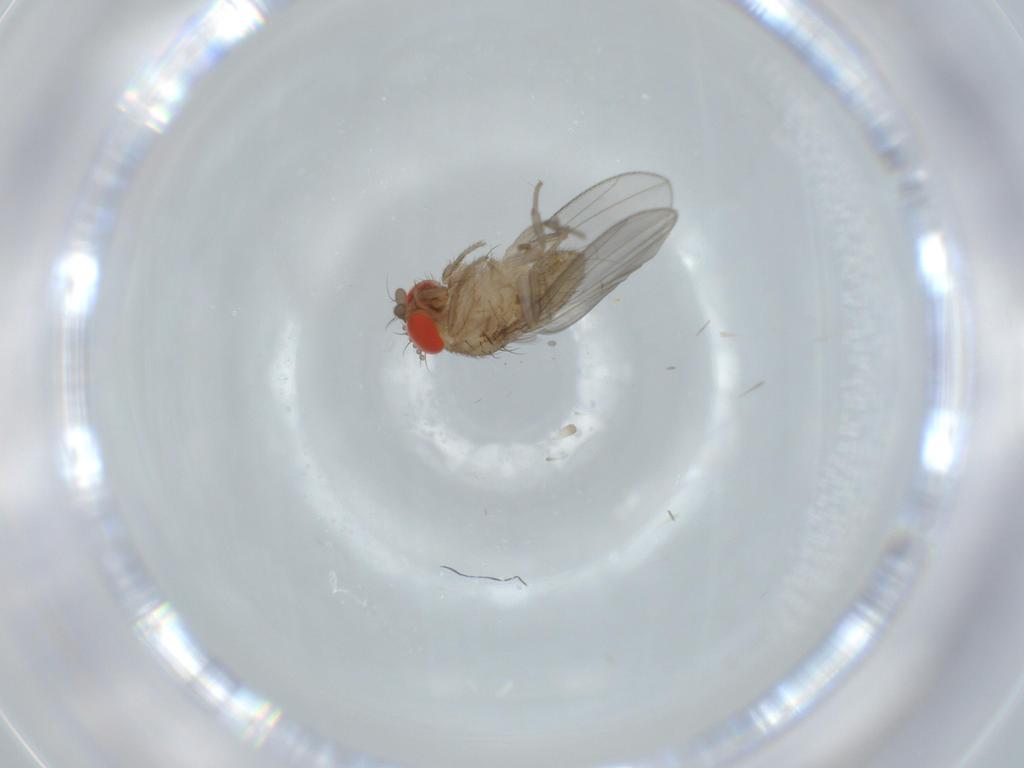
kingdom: Animalia
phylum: Arthropoda
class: Insecta
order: Diptera
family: Drosophilidae
